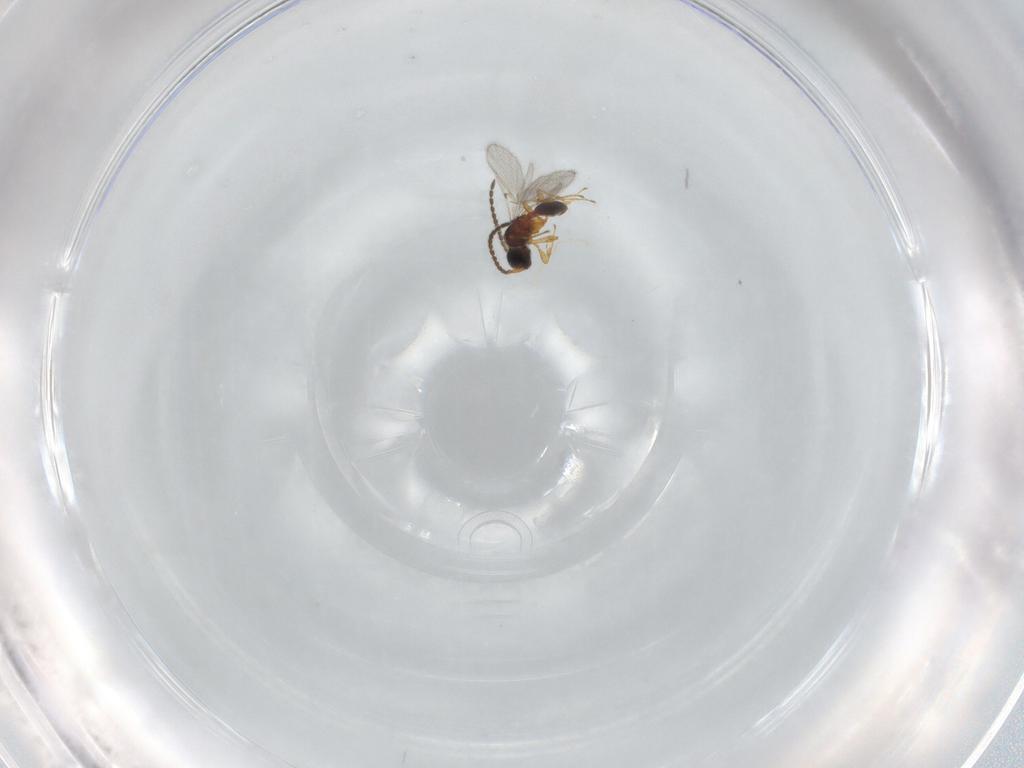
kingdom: Animalia
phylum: Arthropoda
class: Insecta
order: Hymenoptera
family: Diapriidae
